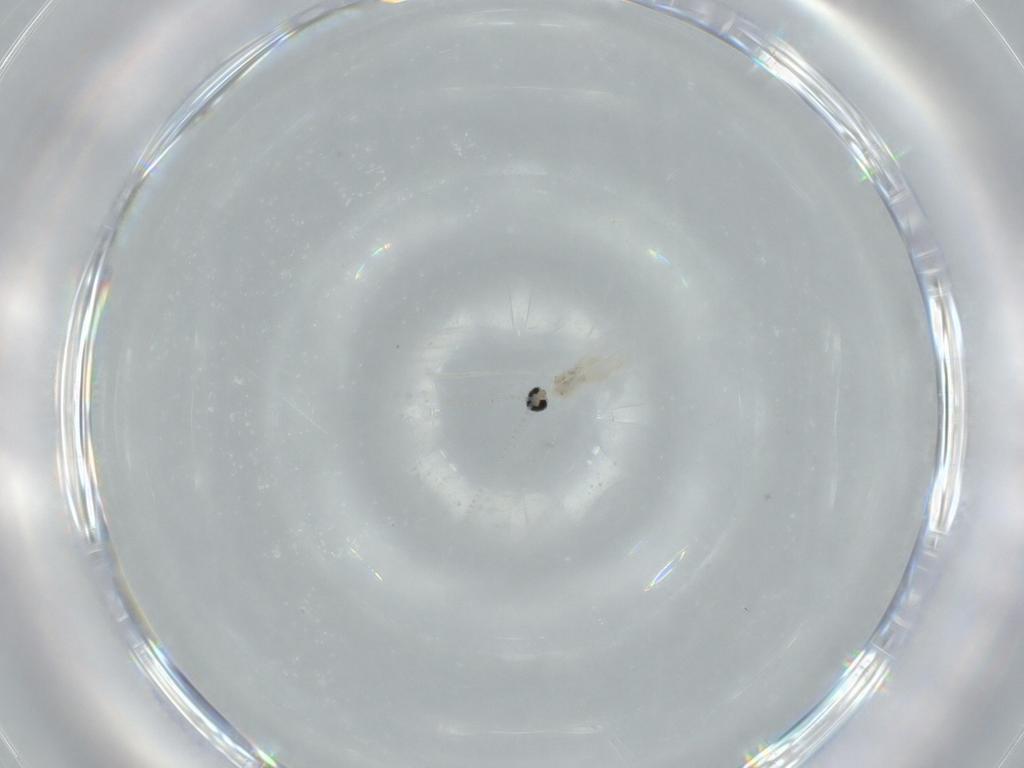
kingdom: Animalia
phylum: Arthropoda
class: Insecta
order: Diptera
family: Cecidomyiidae
